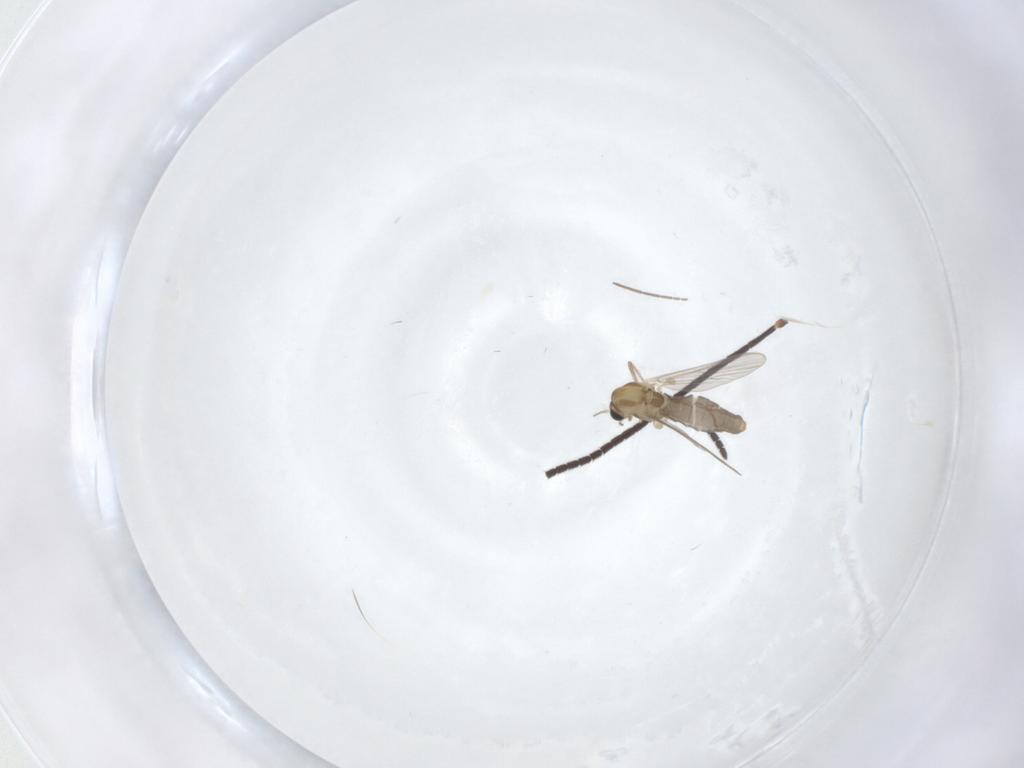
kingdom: Animalia
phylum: Arthropoda
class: Insecta
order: Diptera
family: Chironomidae
